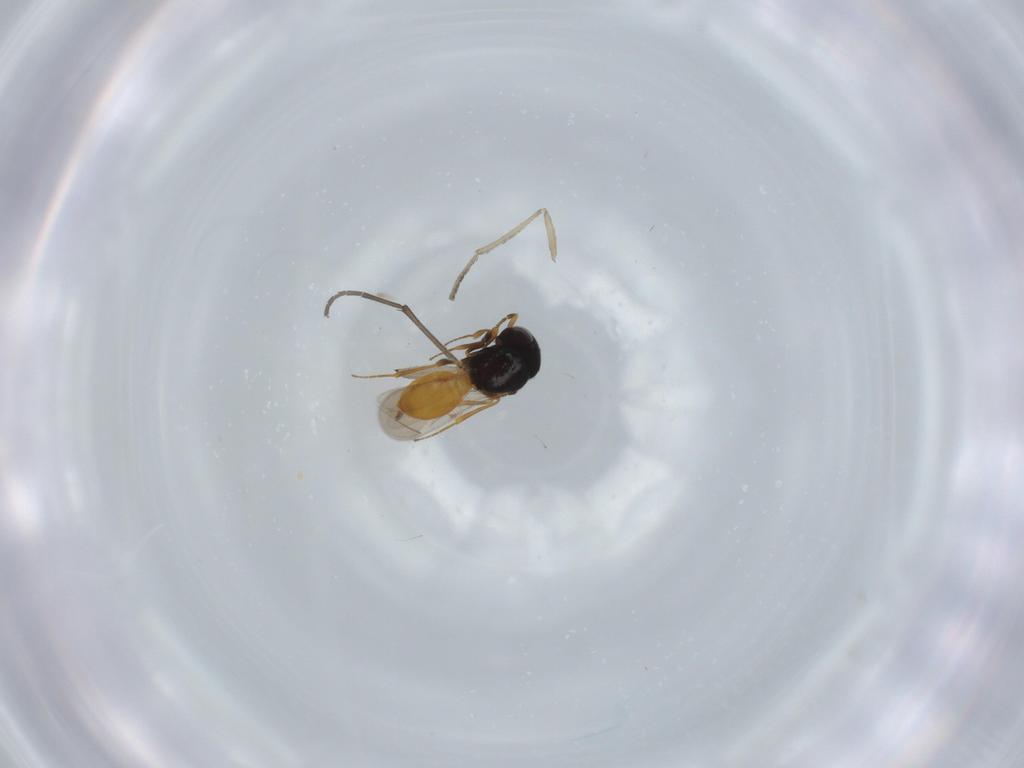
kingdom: Animalia
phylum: Arthropoda
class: Insecta
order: Hymenoptera
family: Scelionidae
